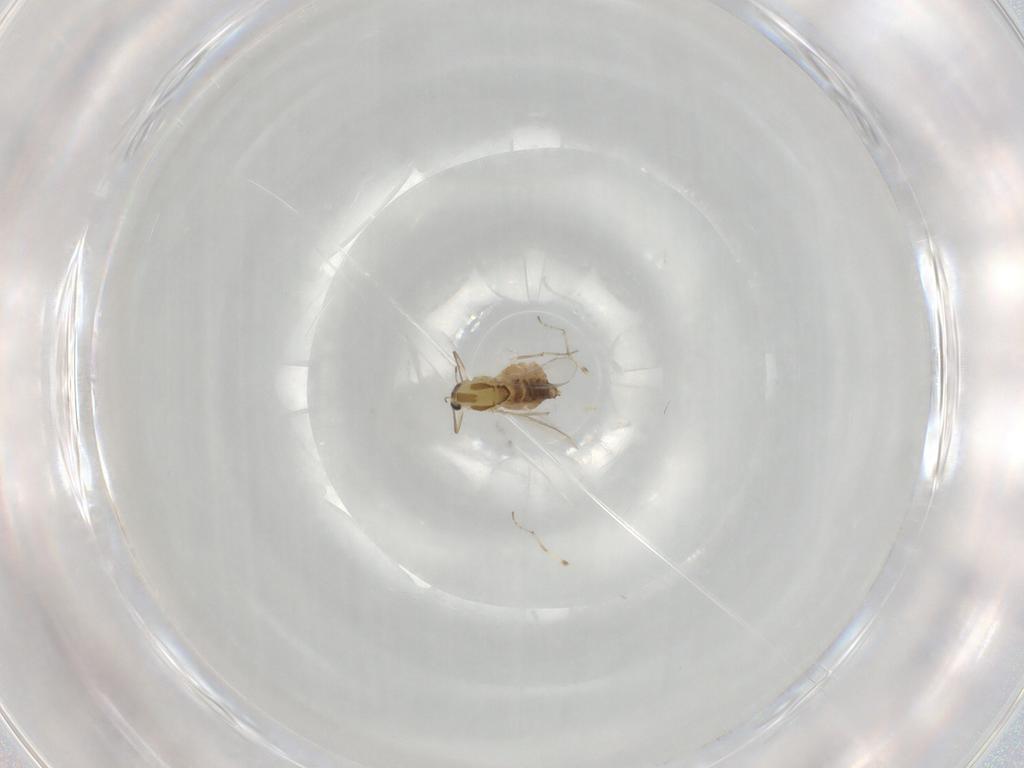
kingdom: Animalia
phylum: Arthropoda
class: Insecta
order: Diptera
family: Chironomidae
